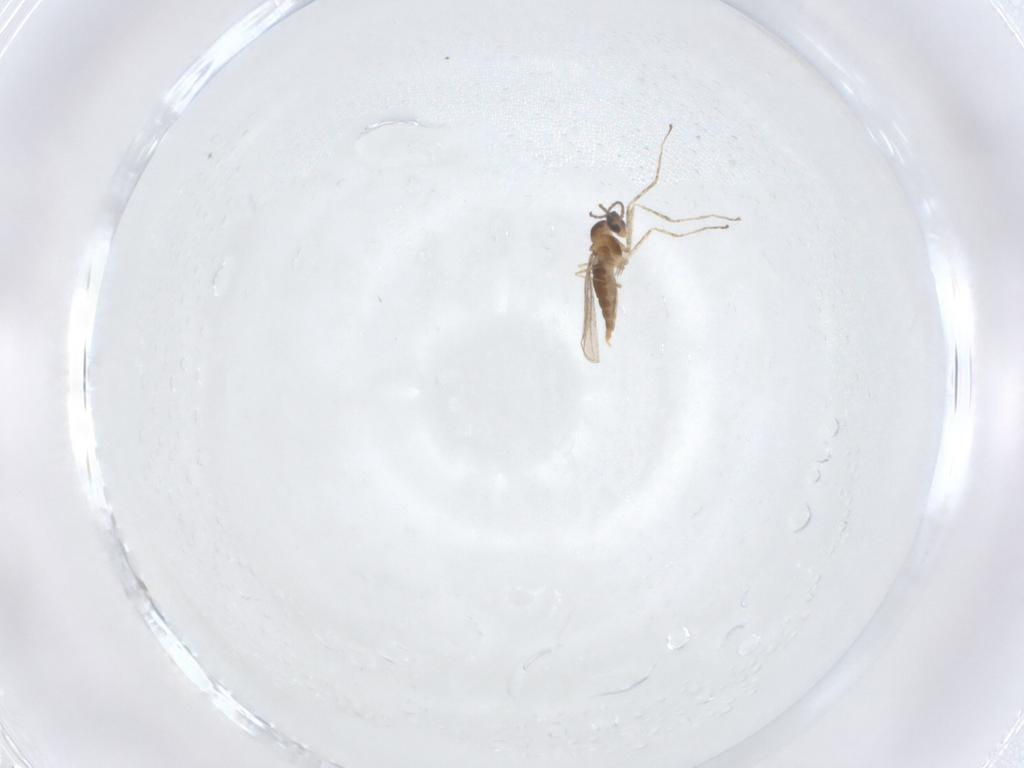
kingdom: Animalia
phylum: Arthropoda
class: Insecta
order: Diptera
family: Cecidomyiidae
